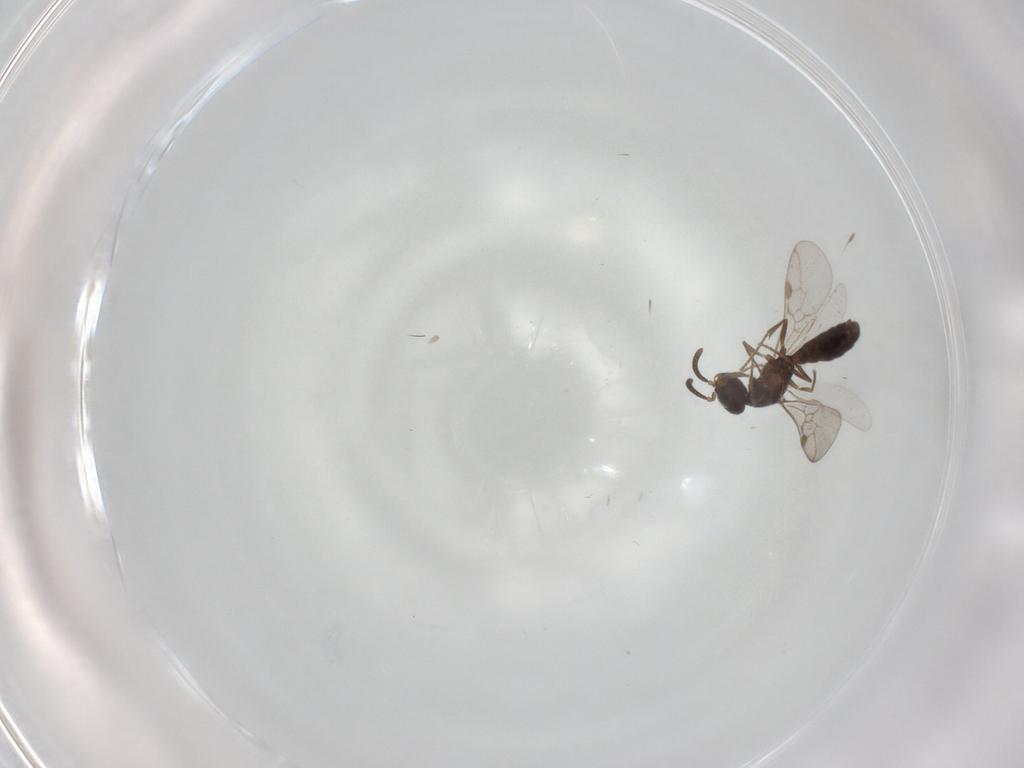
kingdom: Animalia
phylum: Arthropoda
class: Insecta
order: Hymenoptera
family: Formicidae
